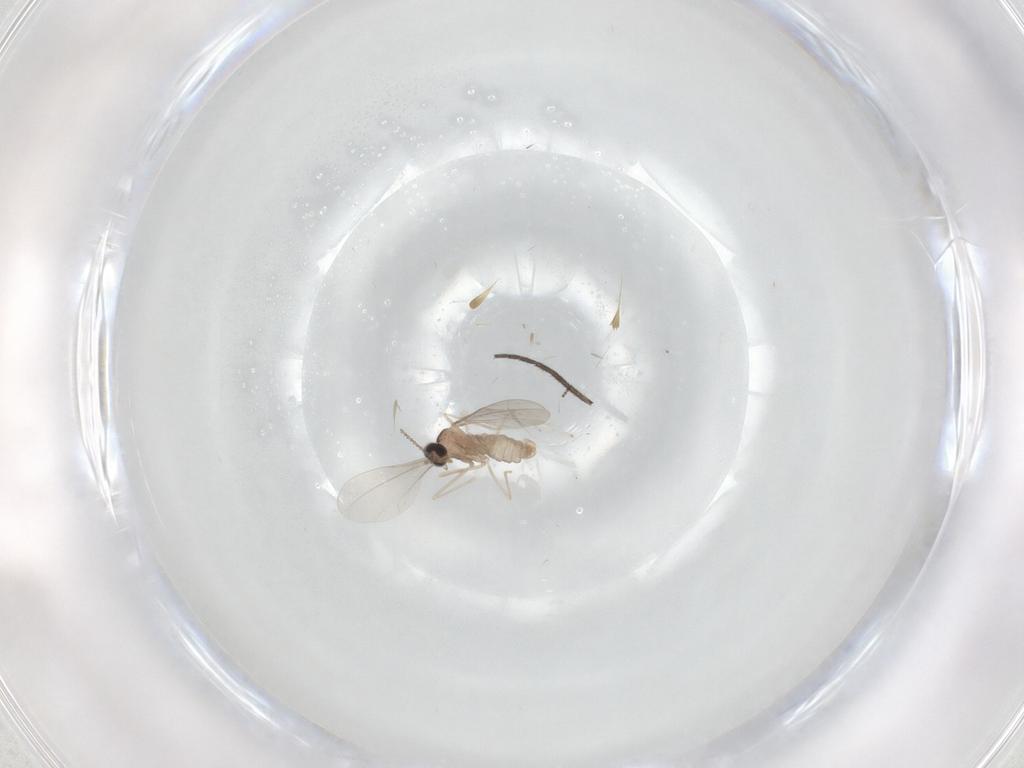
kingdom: Animalia
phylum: Arthropoda
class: Insecta
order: Diptera
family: Cecidomyiidae
